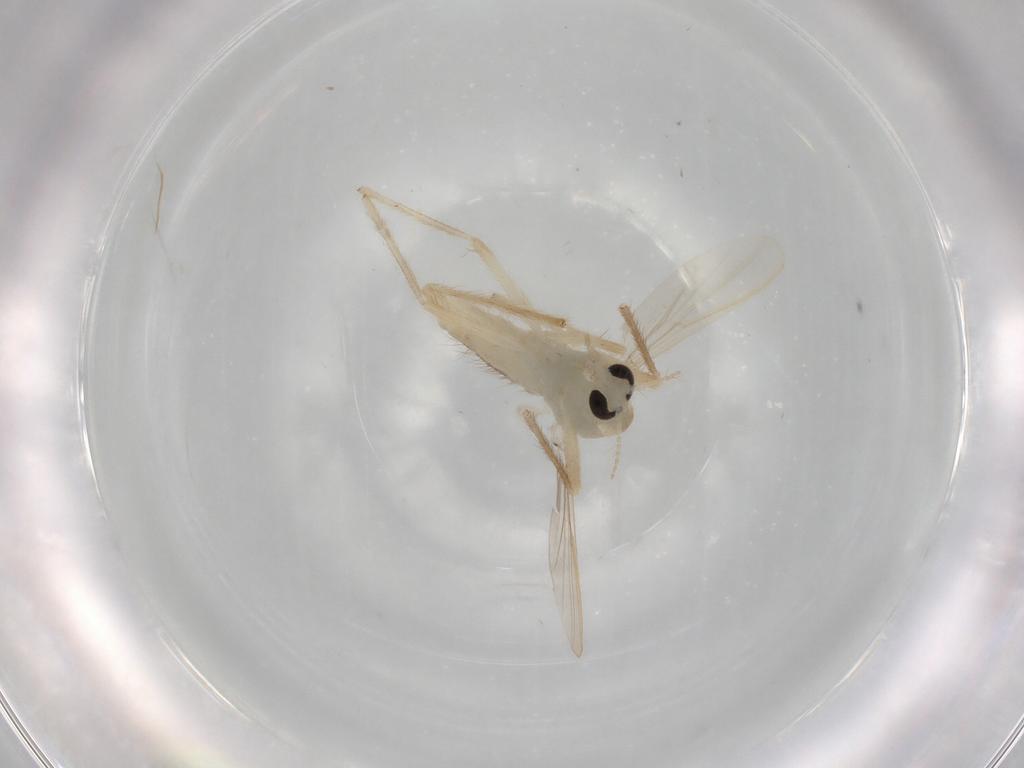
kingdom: Animalia
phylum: Arthropoda
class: Insecta
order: Diptera
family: Chironomidae
